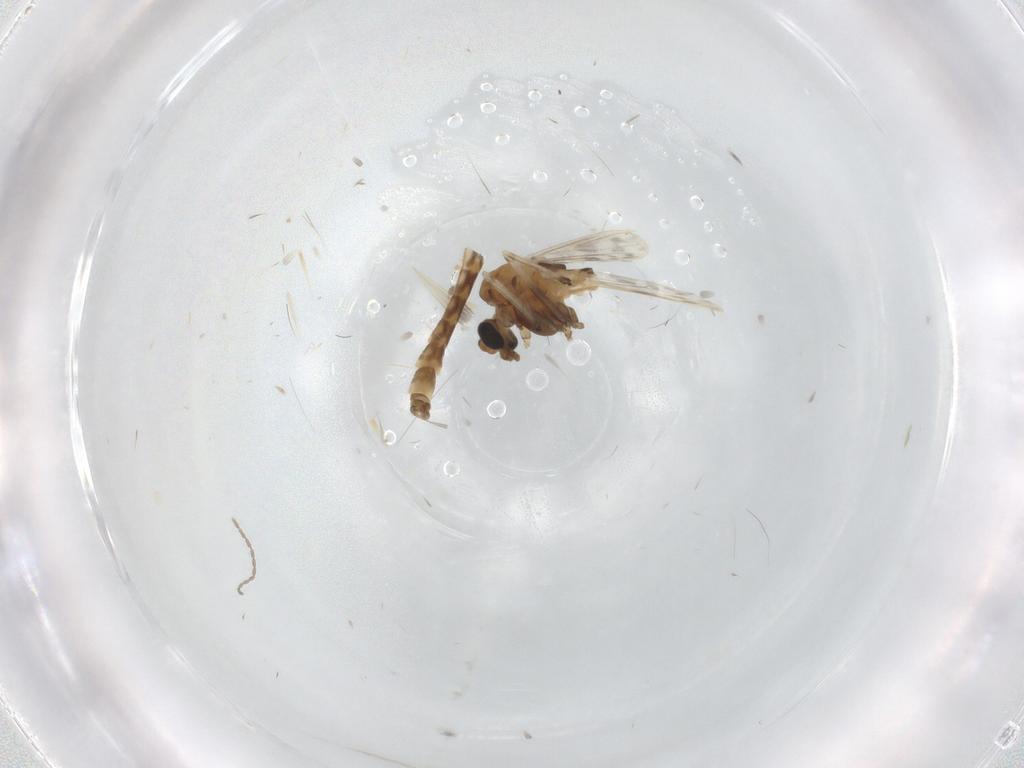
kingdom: Animalia
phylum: Arthropoda
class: Insecta
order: Diptera
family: Chironomidae
